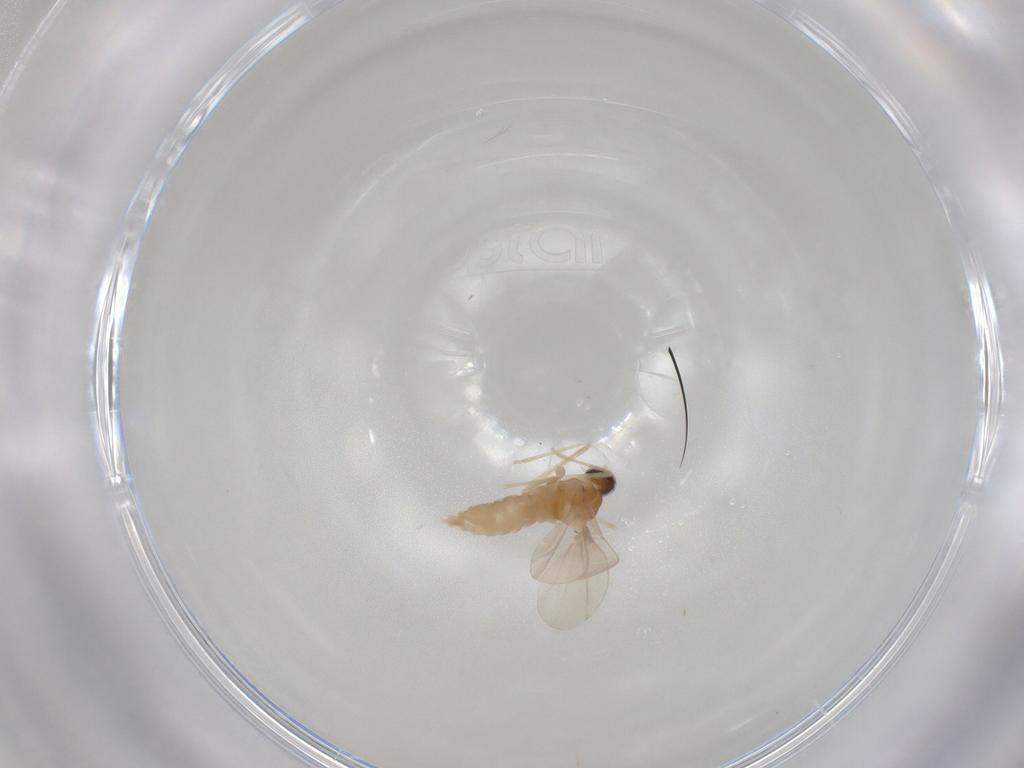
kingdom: Animalia
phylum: Arthropoda
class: Insecta
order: Diptera
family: Cecidomyiidae
